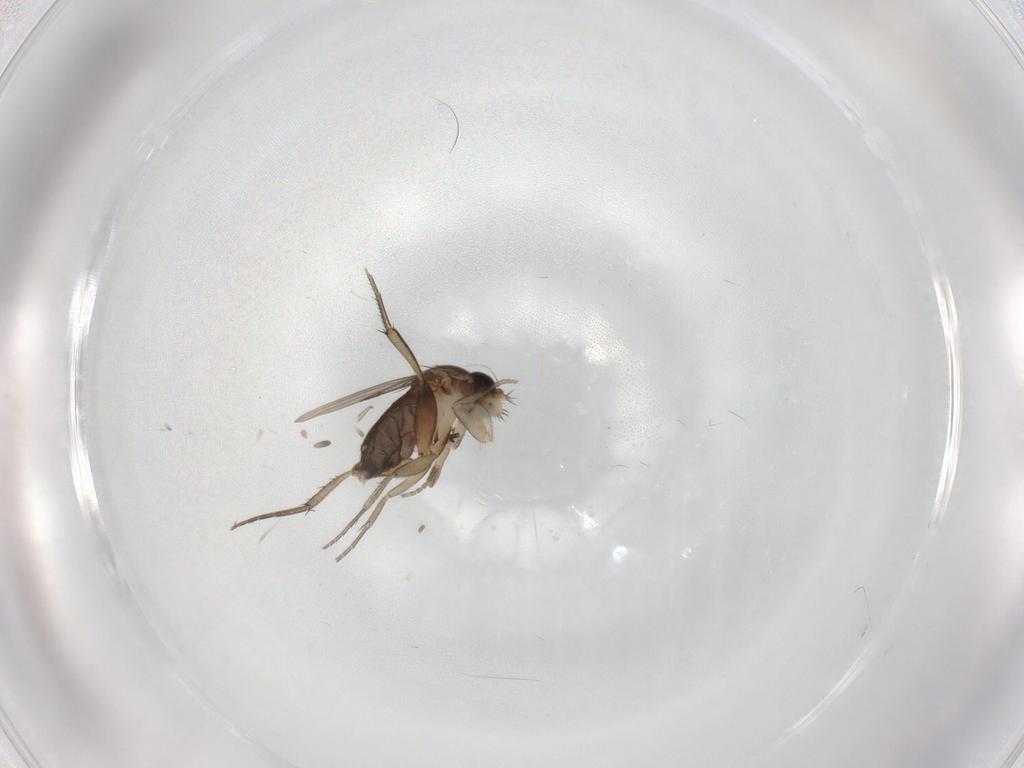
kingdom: Animalia
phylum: Arthropoda
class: Insecta
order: Diptera
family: Phoridae
